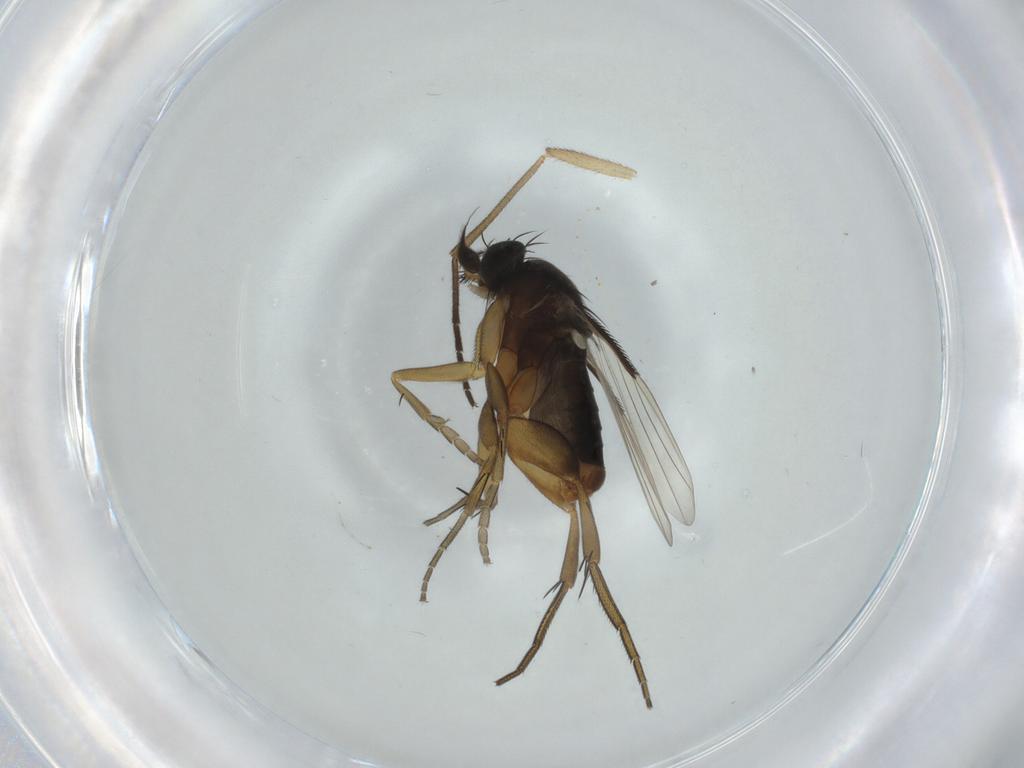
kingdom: Animalia
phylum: Arthropoda
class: Insecta
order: Diptera
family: Phoridae
